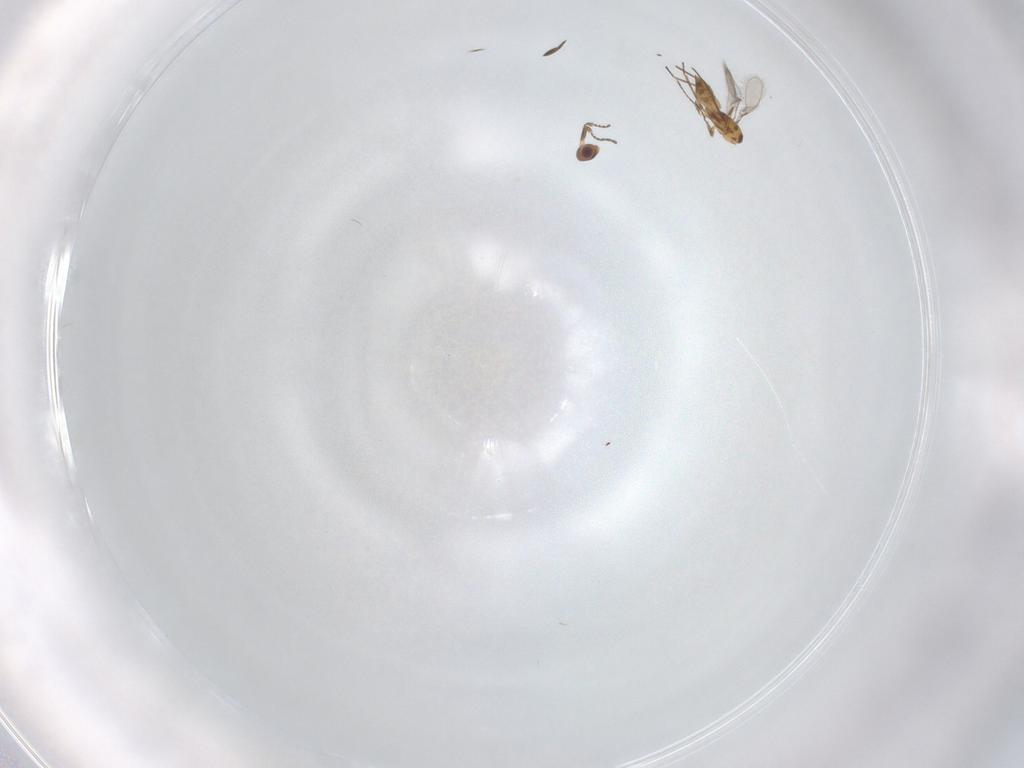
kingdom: Animalia
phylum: Arthropoda
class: Insecta
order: Hymenoptera
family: Mymaridae
